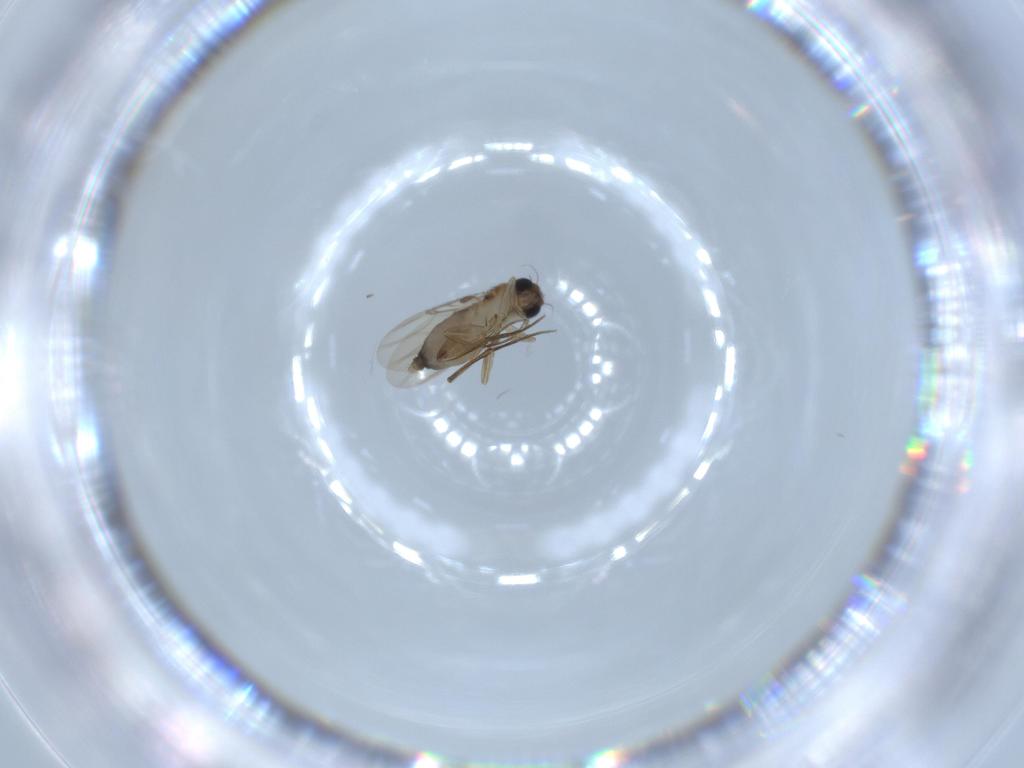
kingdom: Animalia
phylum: Arthropoda
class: Insecta
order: Diptera
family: Phoridae
